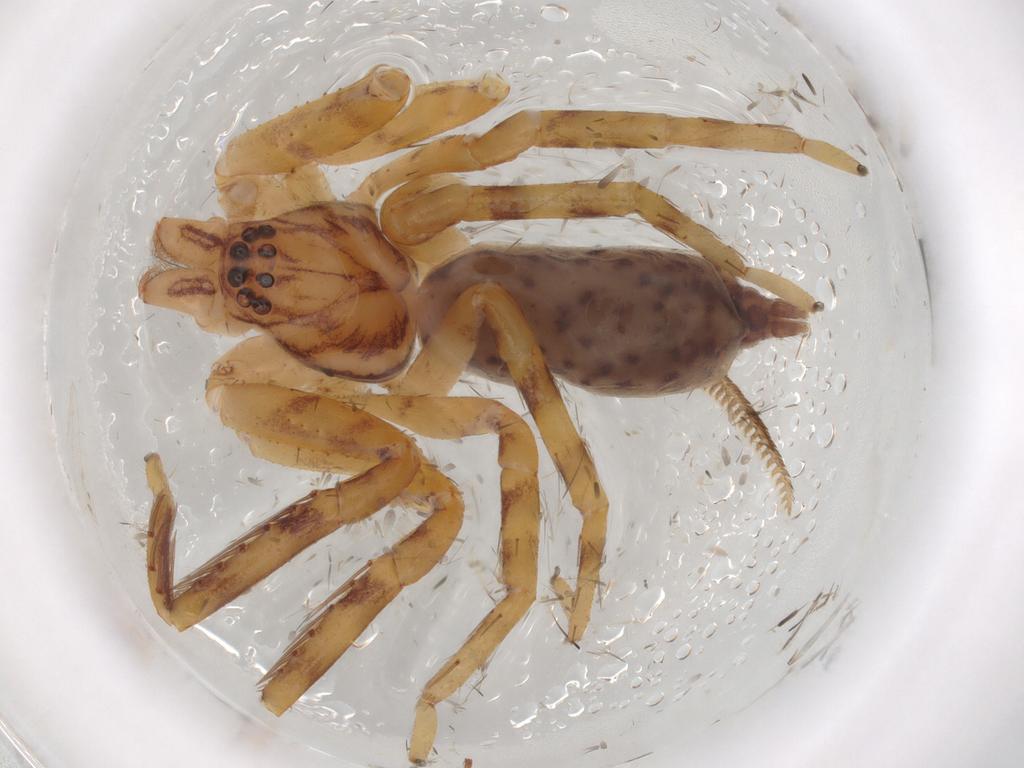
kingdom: Animalia
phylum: Arthropoda
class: Arachnida
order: Araneae
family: Sparassidae
